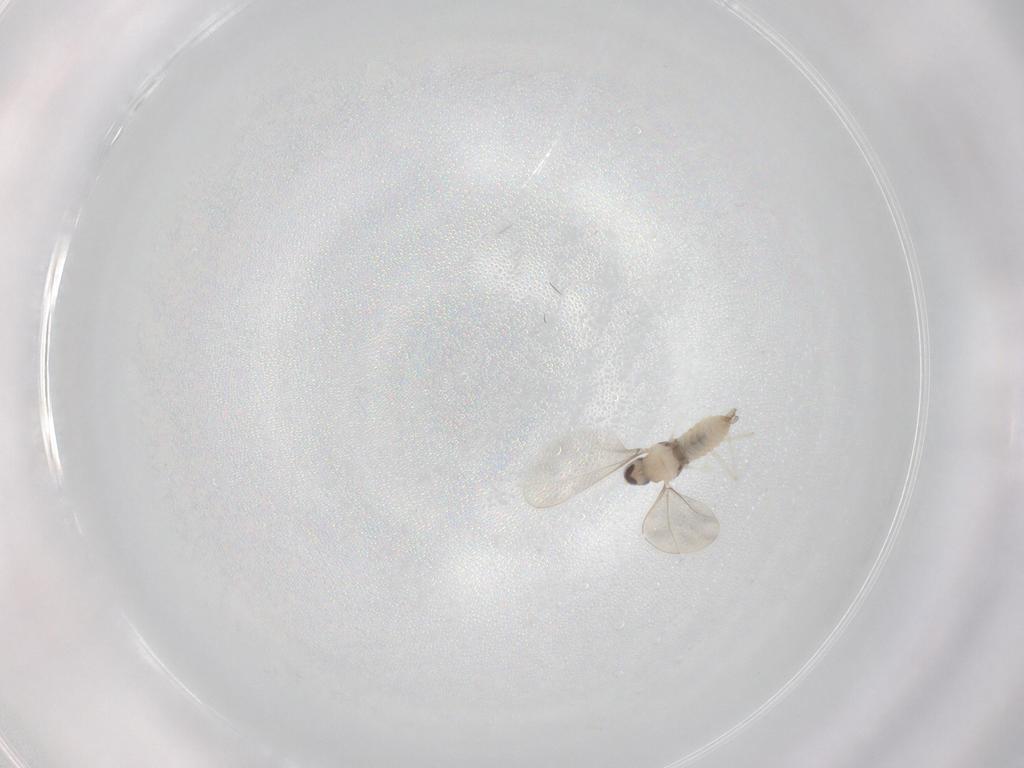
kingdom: Animalia
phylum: Arthropoda
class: Insecta
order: Diptera
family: Cecidomyiidae
